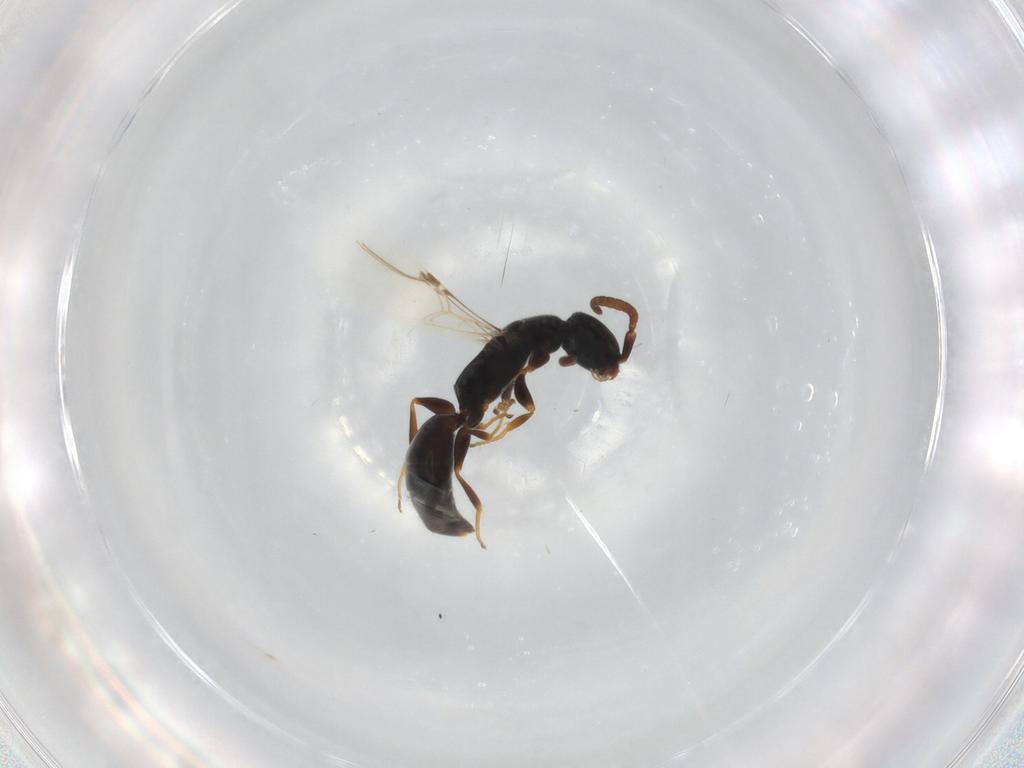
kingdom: Animalia
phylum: Arthropoda
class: Insecta
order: Hymenoptera
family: Bethylidae
